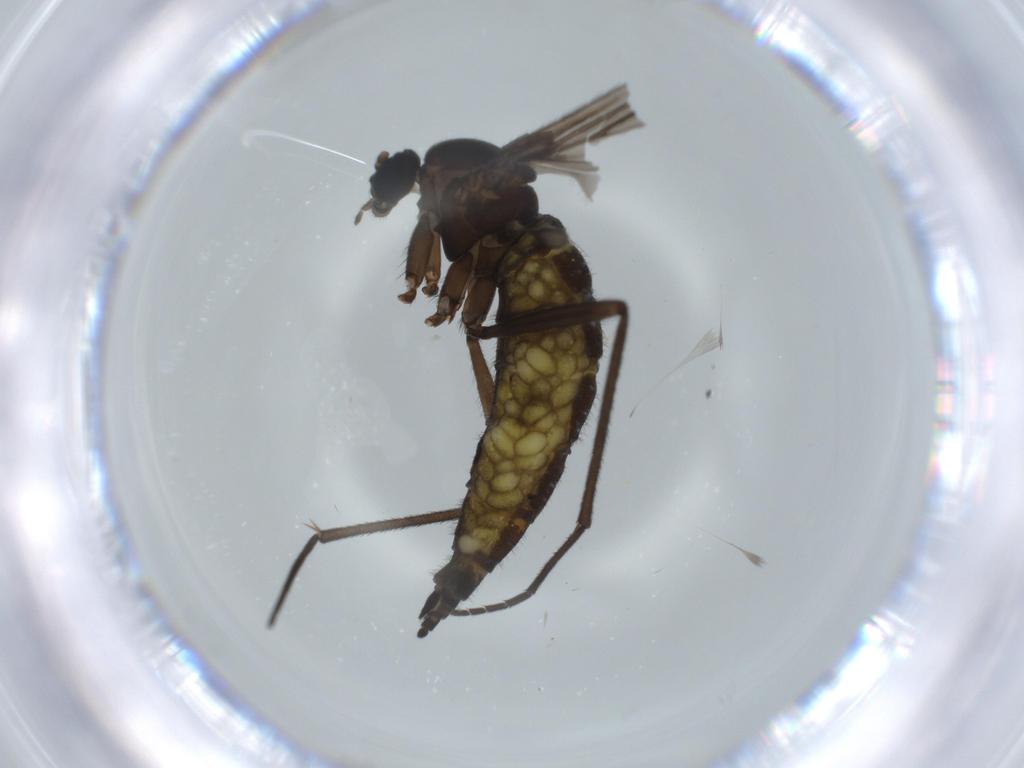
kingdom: Animalia
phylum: Arthropoda
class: Insecta
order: Diptera
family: Sciaridae
